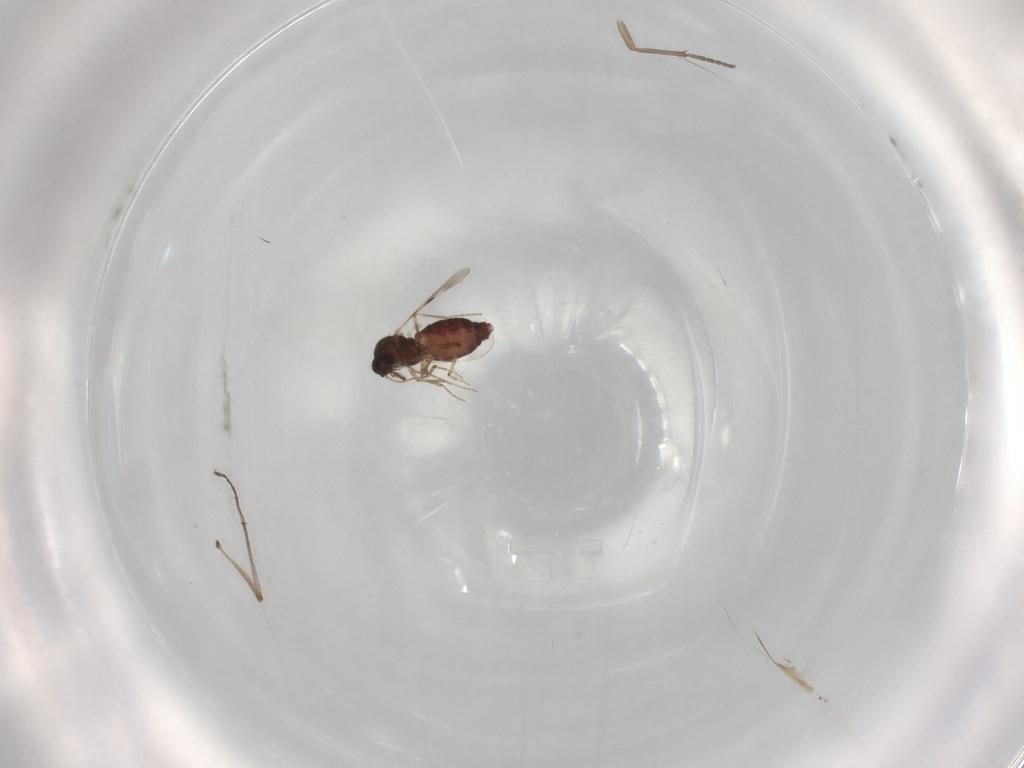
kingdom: Animalia
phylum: Arthropoda
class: Insecta
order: Diptera
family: Sciaridae
